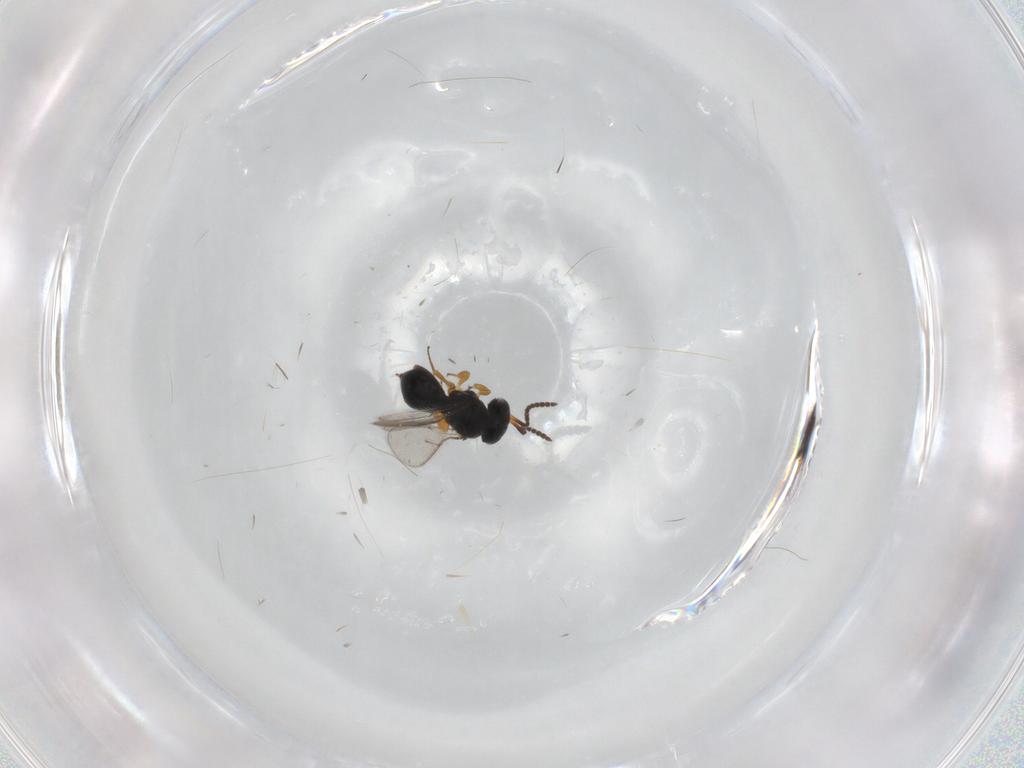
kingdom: Animalia
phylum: Arthropoda
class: Insecta
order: Hymenoptera
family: Scelionidae
